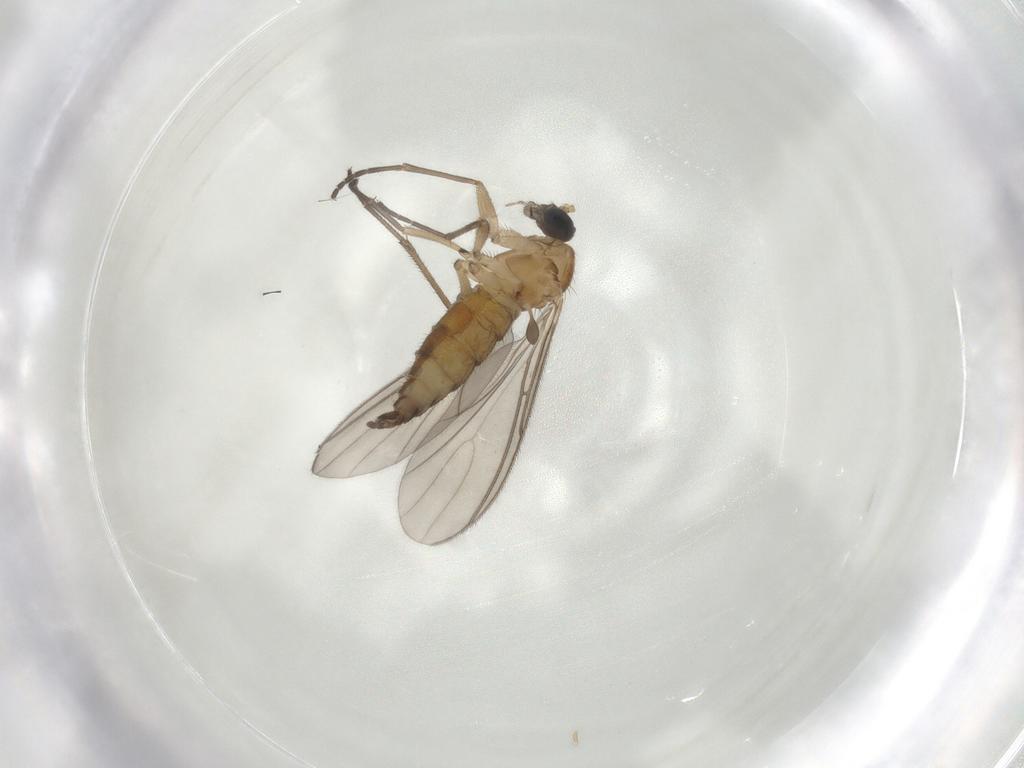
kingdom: Animalia
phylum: Arthropoda
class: Insecta
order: Diptera
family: Sciaridae
